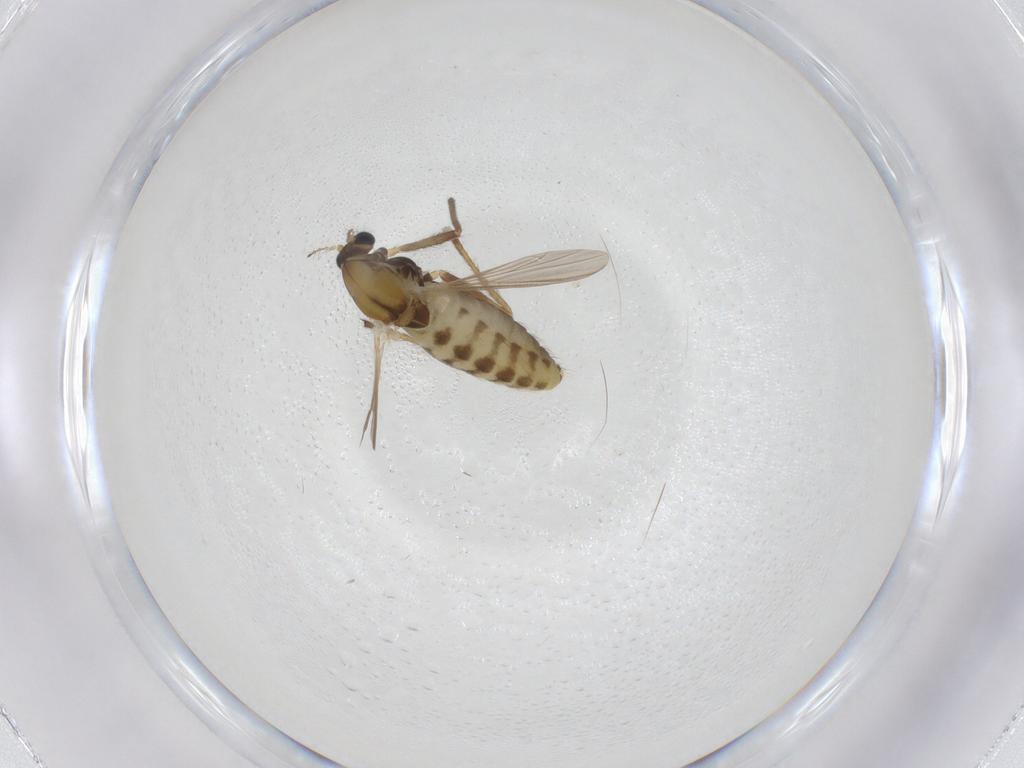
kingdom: Animalia
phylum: Arthropoda
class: Insecta
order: Diptera
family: Chironomidae
